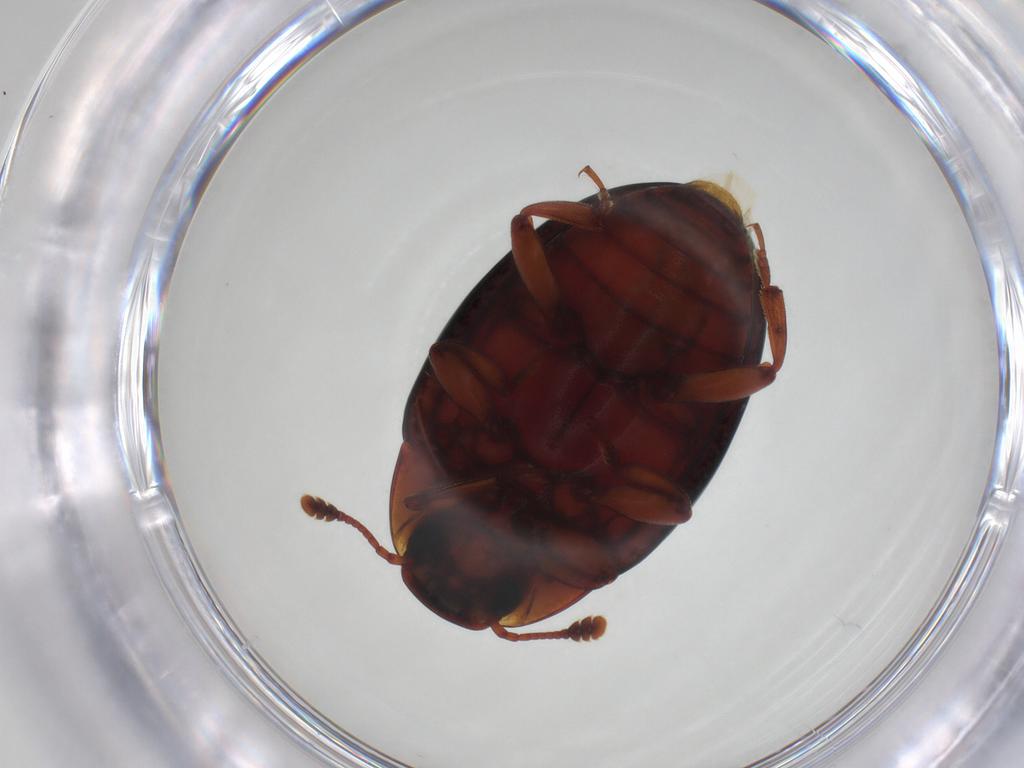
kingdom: Animalia
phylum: Arthropoda
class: Insecta
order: Coleoptera
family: Zopheridae
